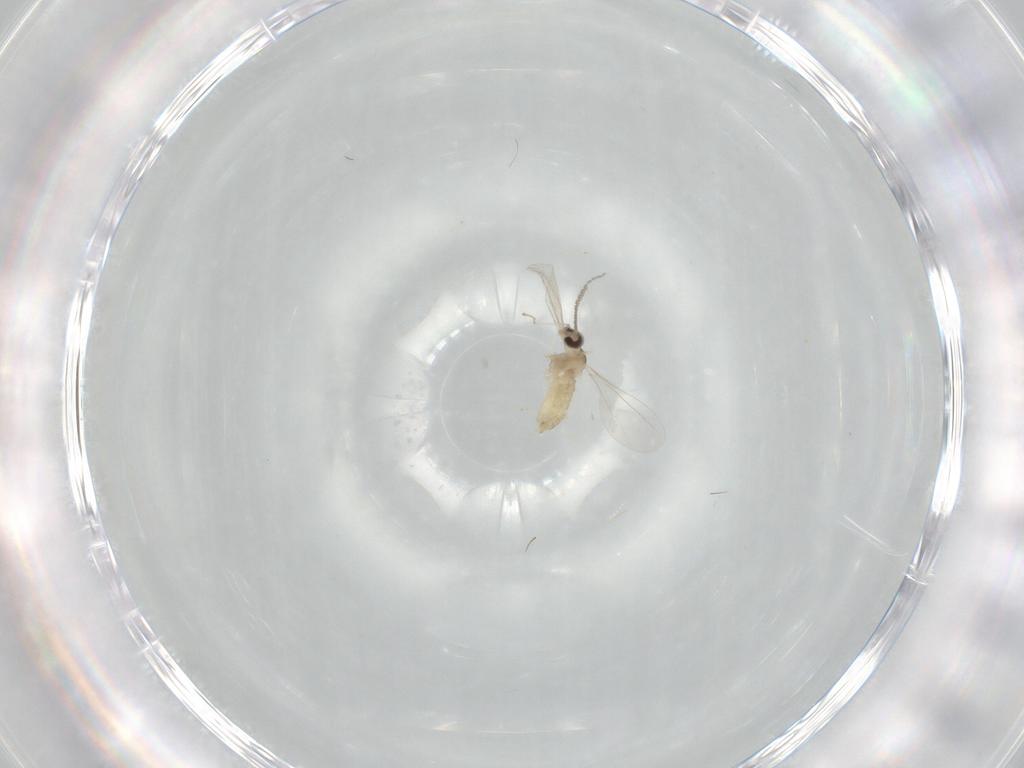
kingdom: Animalia
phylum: Arthropoda
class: Insecta
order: Diptera
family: Cecidomyiidae
